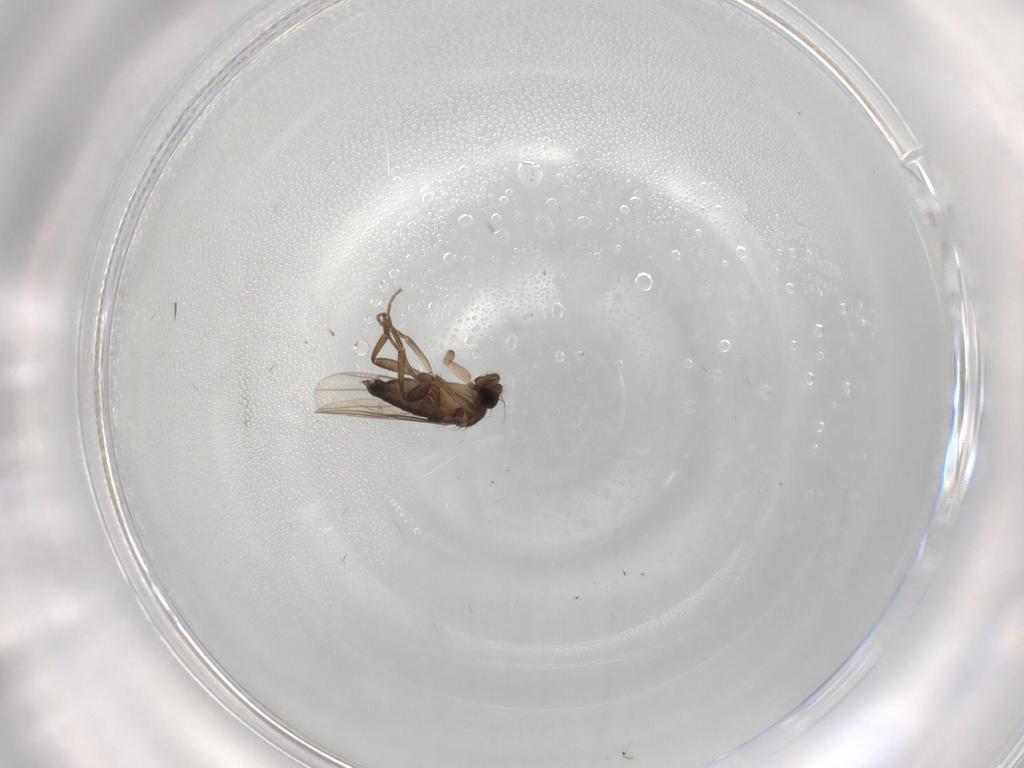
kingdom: Animalia
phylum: Arthropoda
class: Insecta
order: Diptera
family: Sciaridae
